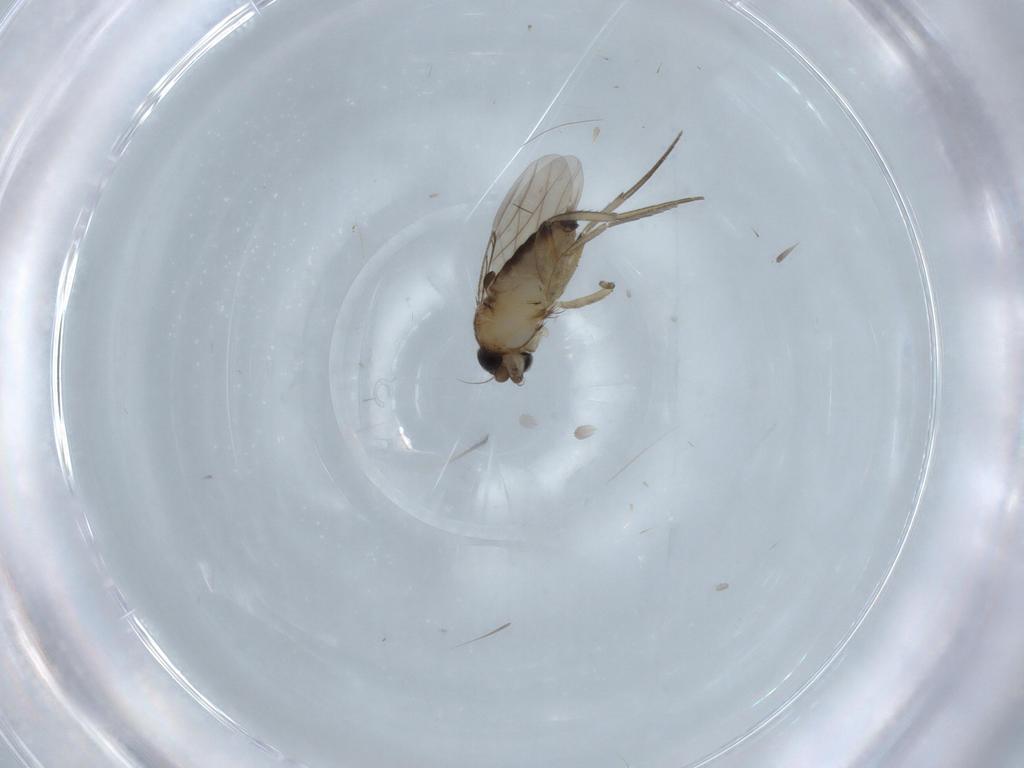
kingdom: Animalia
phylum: Arthropoda
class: Insecta
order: Diptera
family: Phoridae
